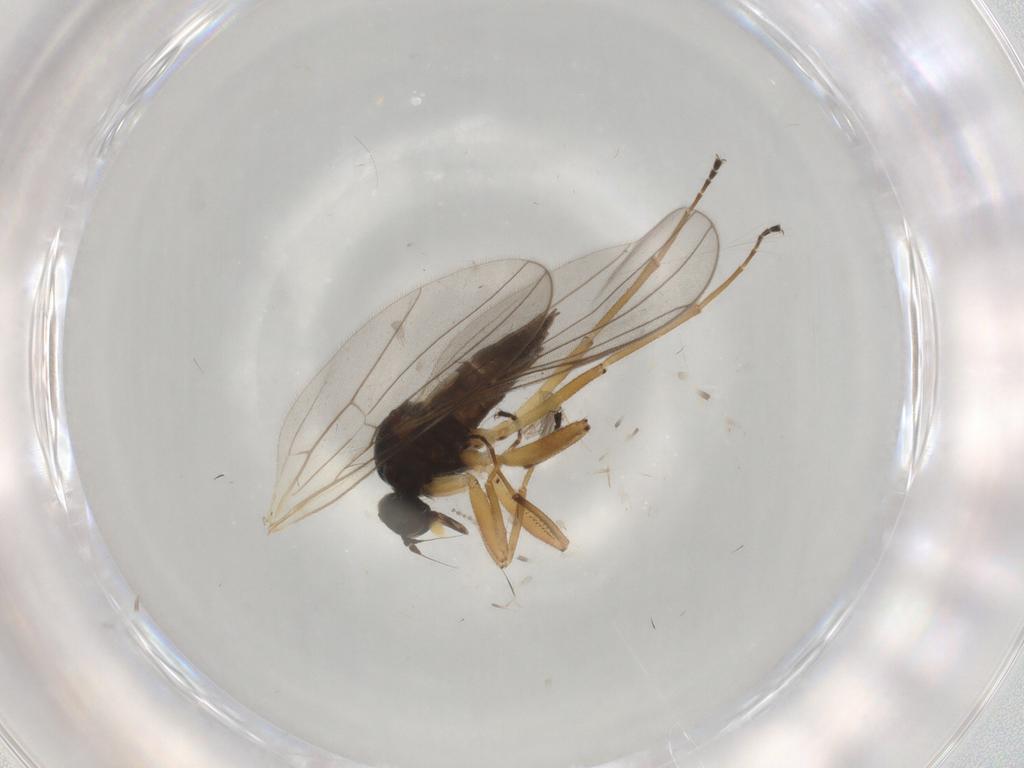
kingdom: Animalia
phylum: Arthropoda
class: Insecta
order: Diptera
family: Hybotidae
